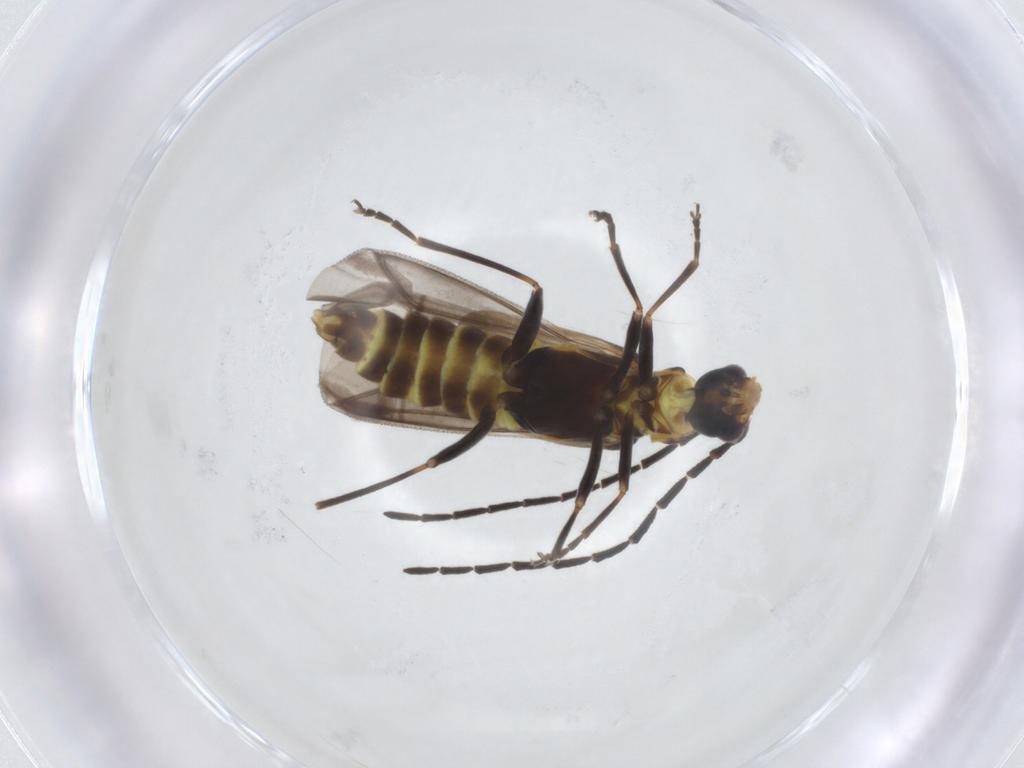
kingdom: Animalia
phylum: Arthropoda
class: Insecta
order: Coleoptera
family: Cantharidae
